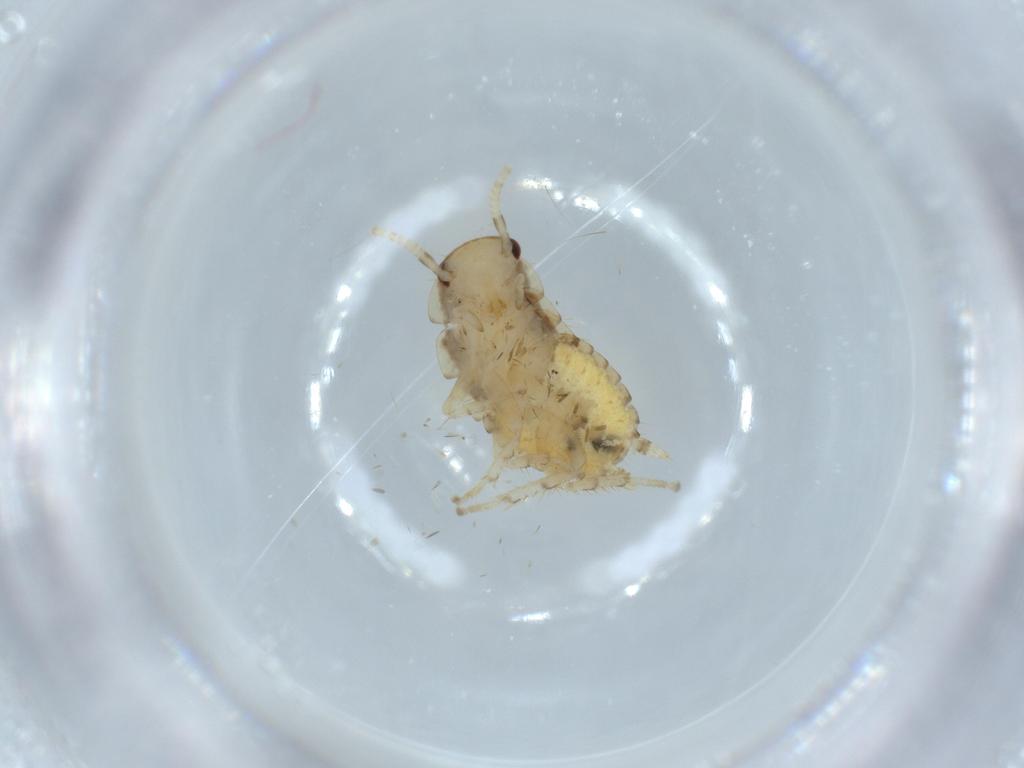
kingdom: Animalia
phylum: Arthropoda
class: Insecta
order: Blattodea
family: Ectobiidae
